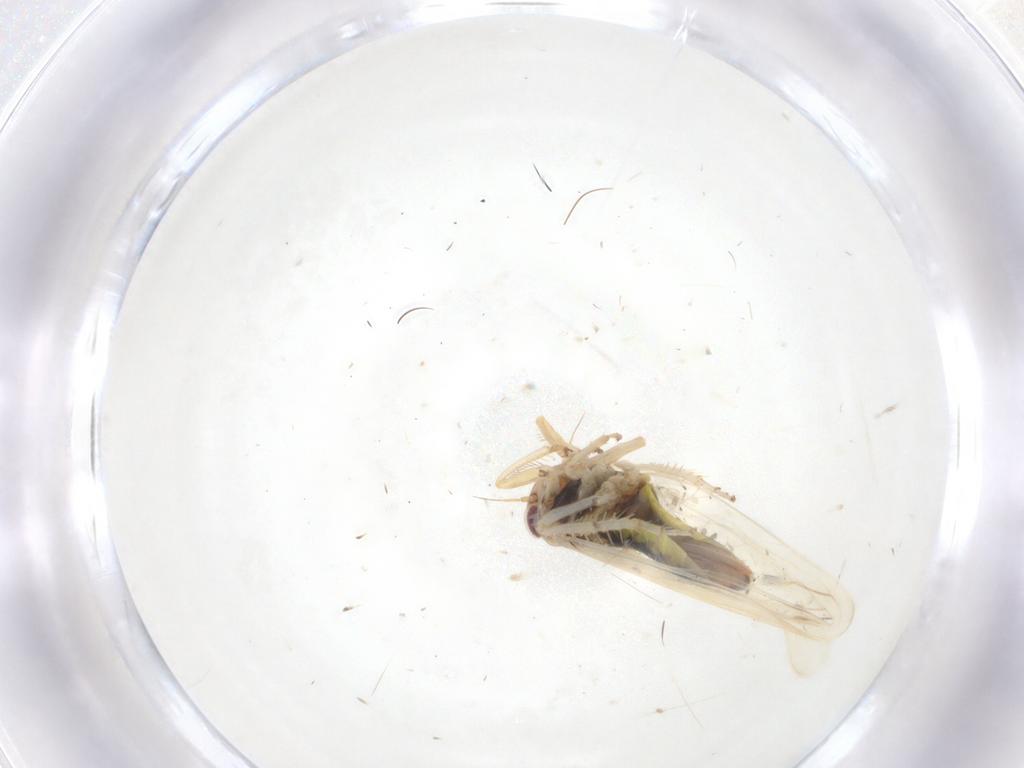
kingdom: Animalia
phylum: Arthropoda
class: Insecta
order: Hemiptera
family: Cicadellidae
